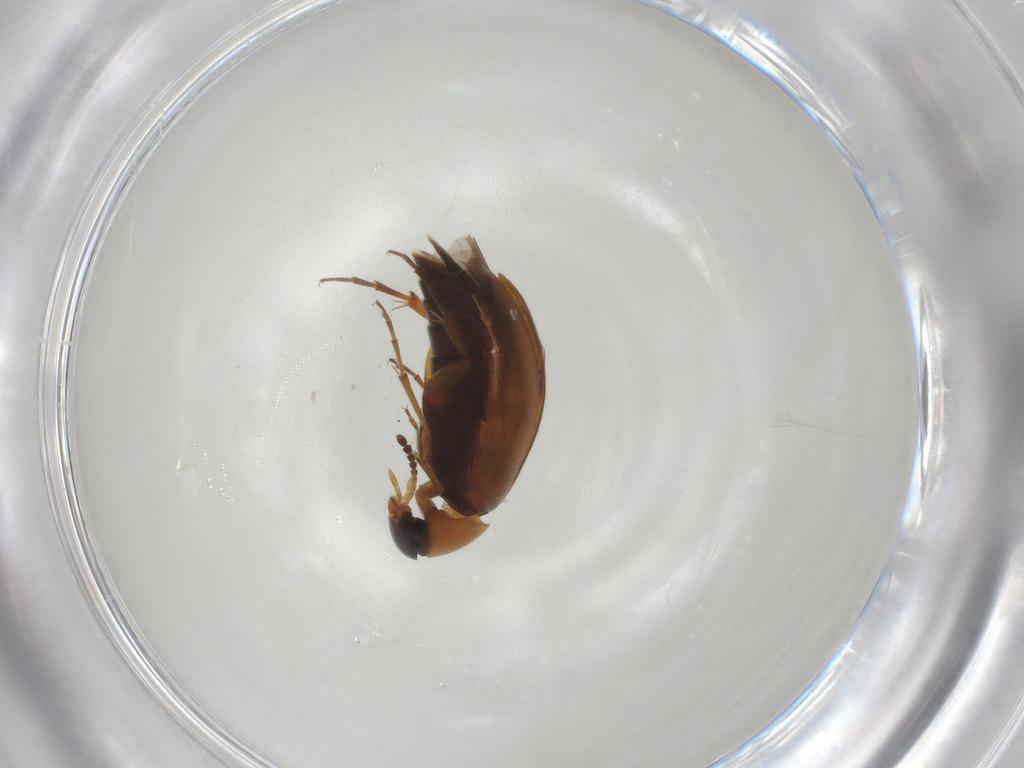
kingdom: Animalia
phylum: Arthropoda
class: Insecta
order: Coleoptera
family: Scraptiidae
